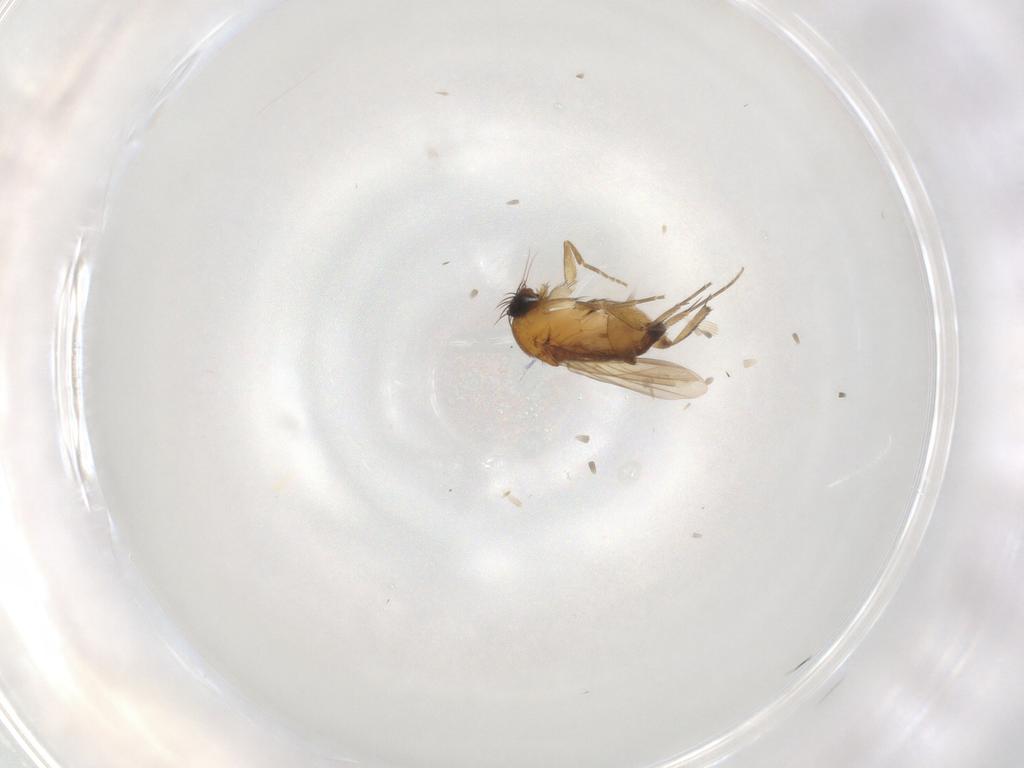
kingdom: Animalia
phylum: Arthropoda
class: Insecta
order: Diptera
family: Phoridae
